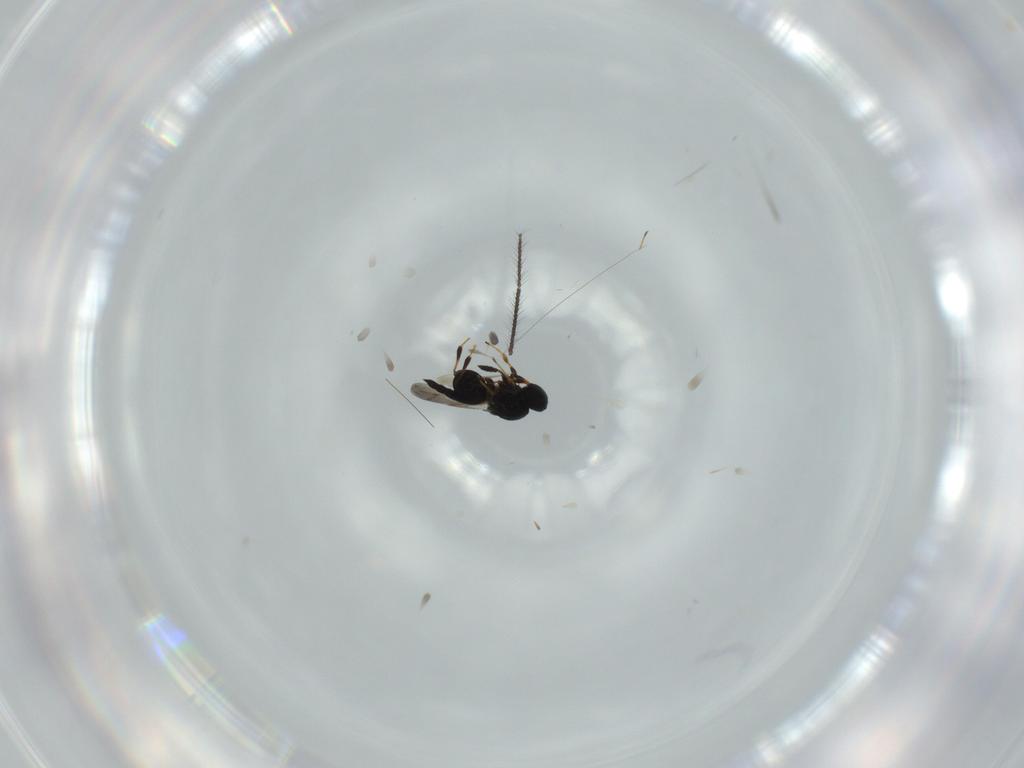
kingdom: Animalia
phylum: Arthropoda
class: Insecta
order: Hymenoptera
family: Platygastridae
